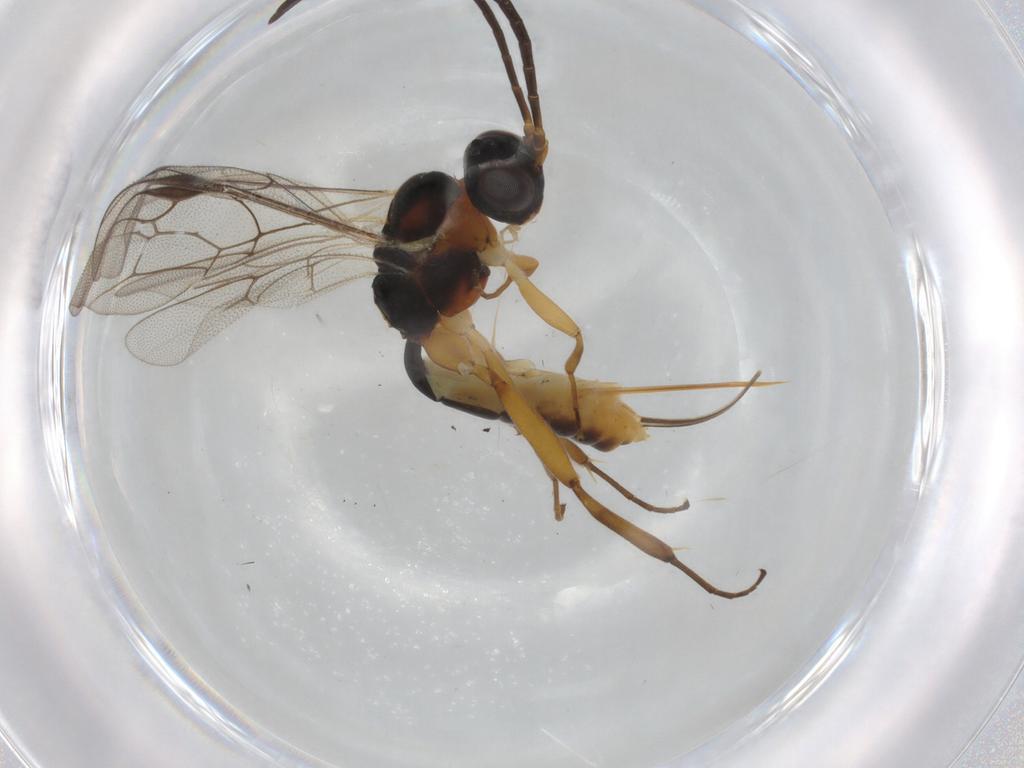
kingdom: Animalia
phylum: Arthropoda
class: Insecta
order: Hymenoptera
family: Ichneumonidae
